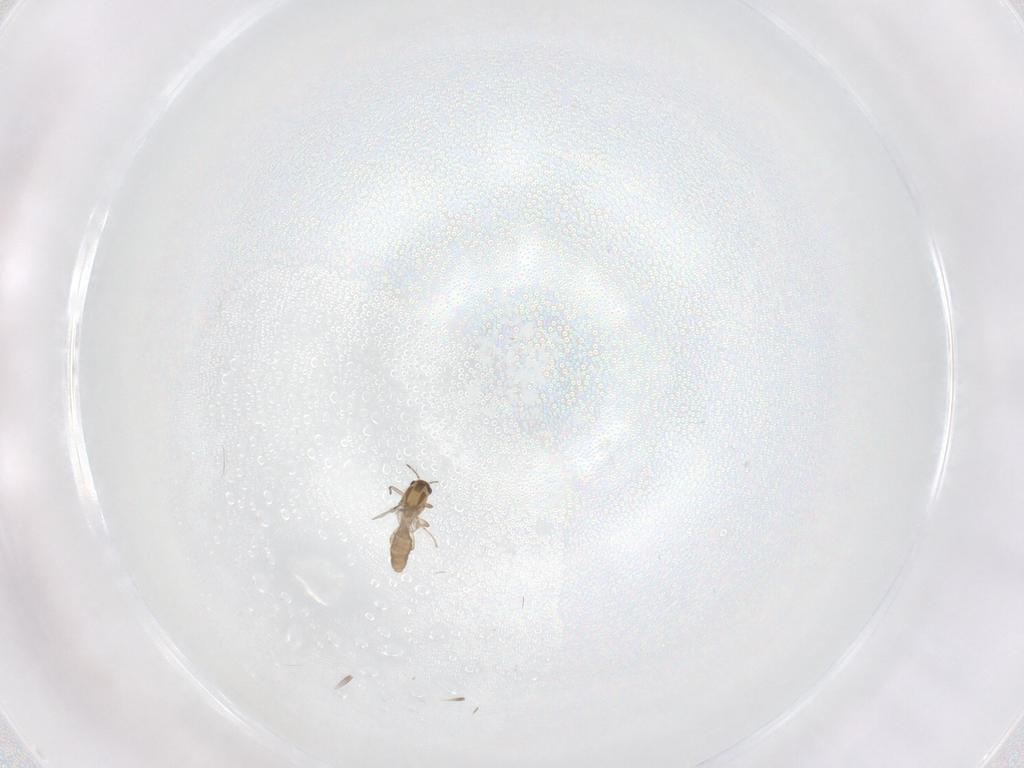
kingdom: Animalia
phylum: Arthropoda
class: Insecta
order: Diptera
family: Chironomidae
